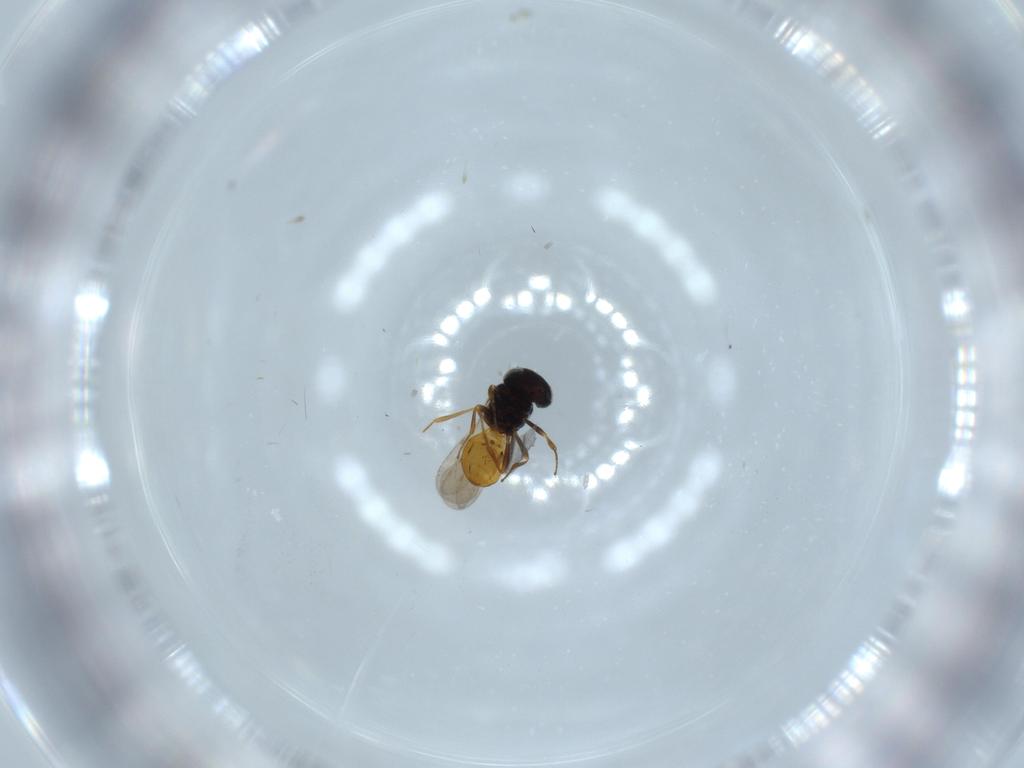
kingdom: Animalia
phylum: Arthropoda
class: Insecta
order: Hymenoptera
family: Scelionidae
